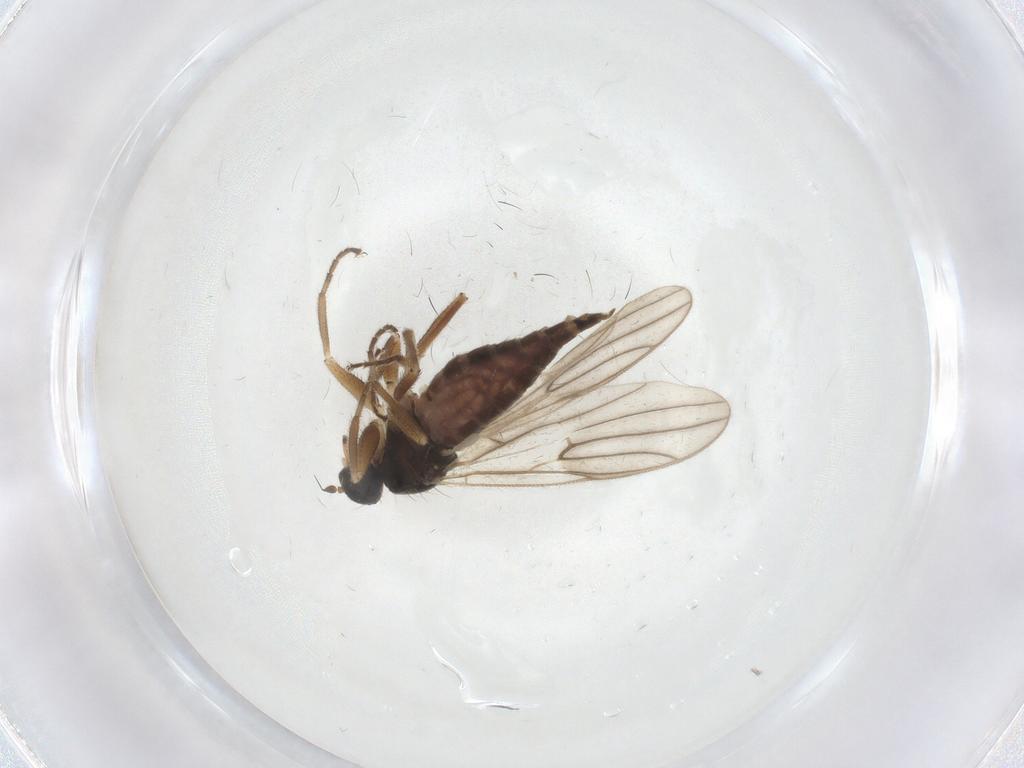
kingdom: Animalia
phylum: Arthropoda
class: Insecta
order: Diptera
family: Hybotidae
